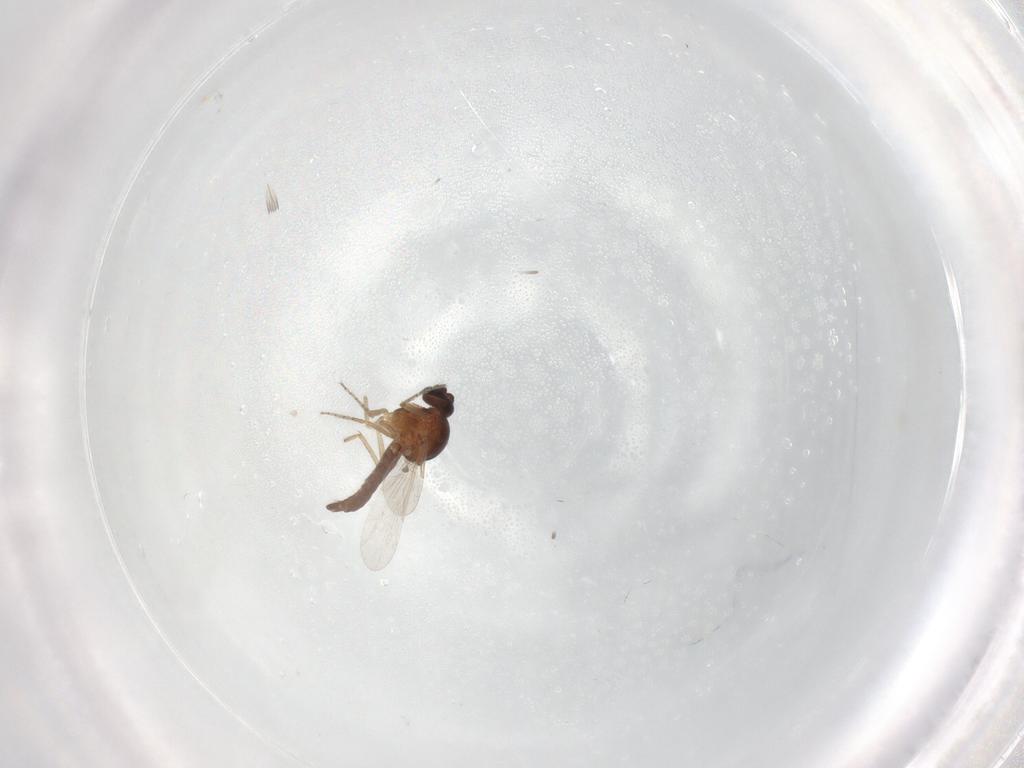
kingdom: Animalia
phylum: Arthropoda
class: Insecta
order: Diptera
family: Ceratopogonidae
